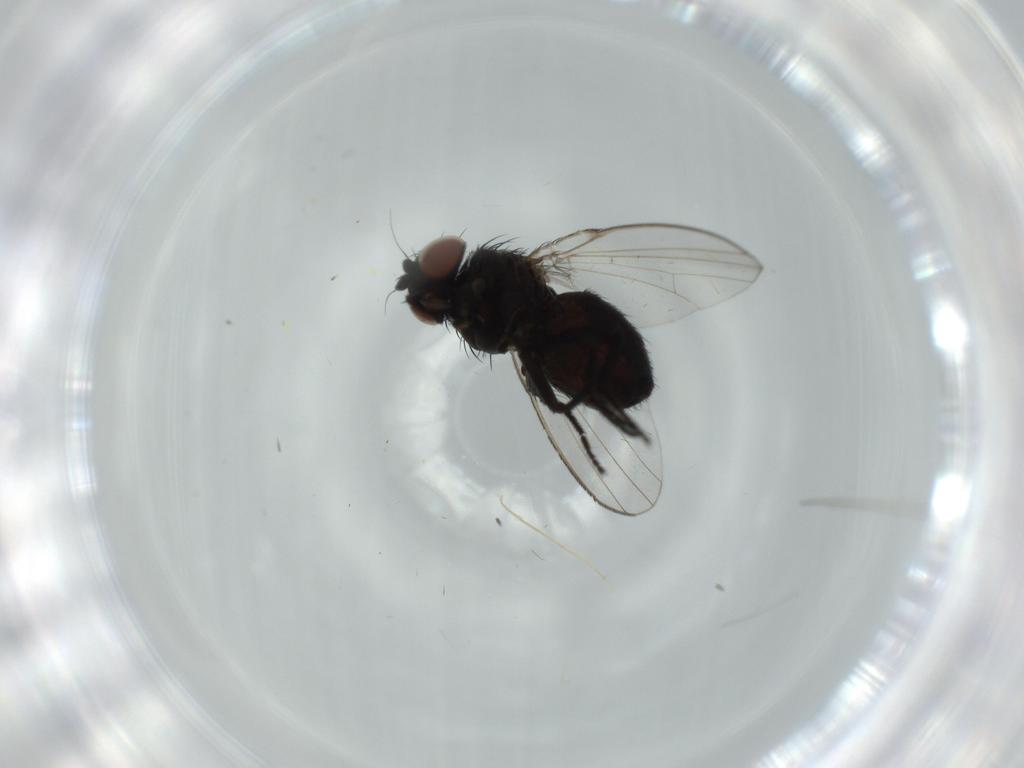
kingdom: Animalia
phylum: Arthropoda
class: Insecta
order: Diptera
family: Milichiidae
